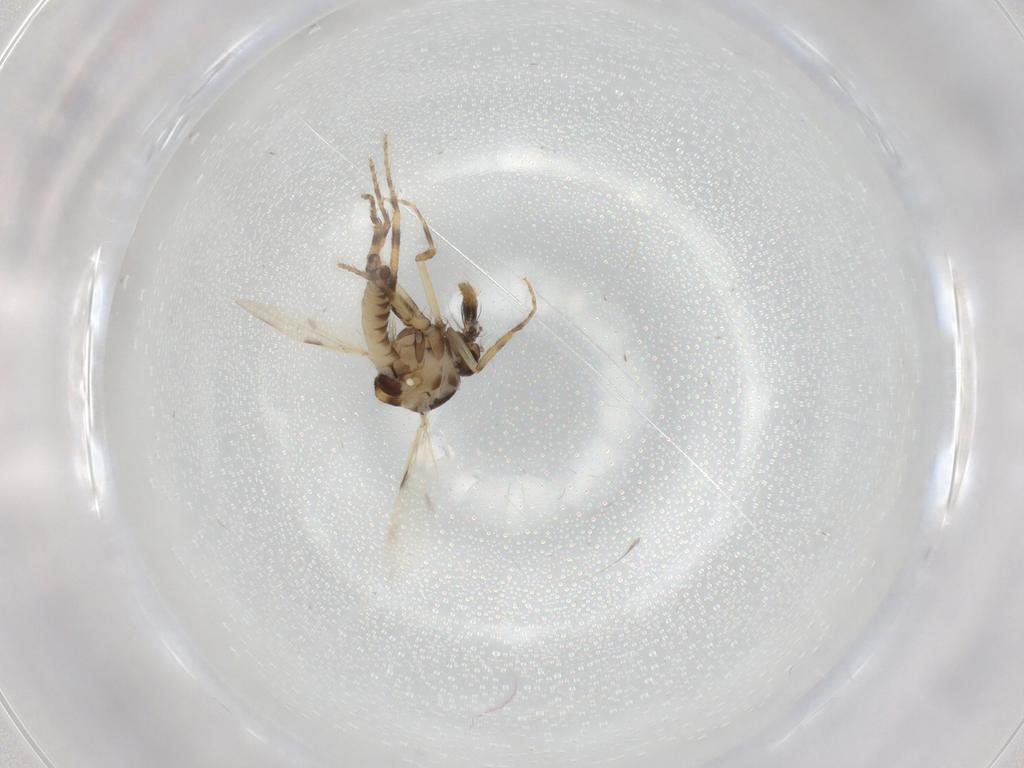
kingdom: Animalia
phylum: Arthropoda
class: Insecta
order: Diptera
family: Ceratopogonidae
